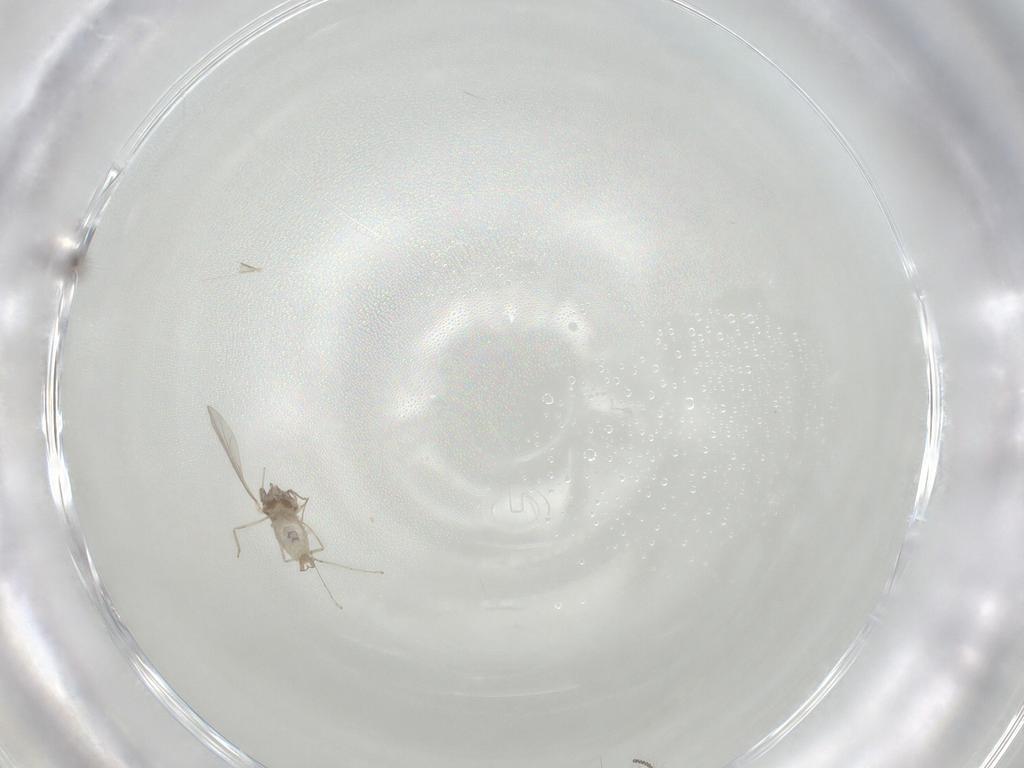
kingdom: Animalia
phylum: Arthropoda
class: Insecta
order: Diptera
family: Cecidomyiidae
